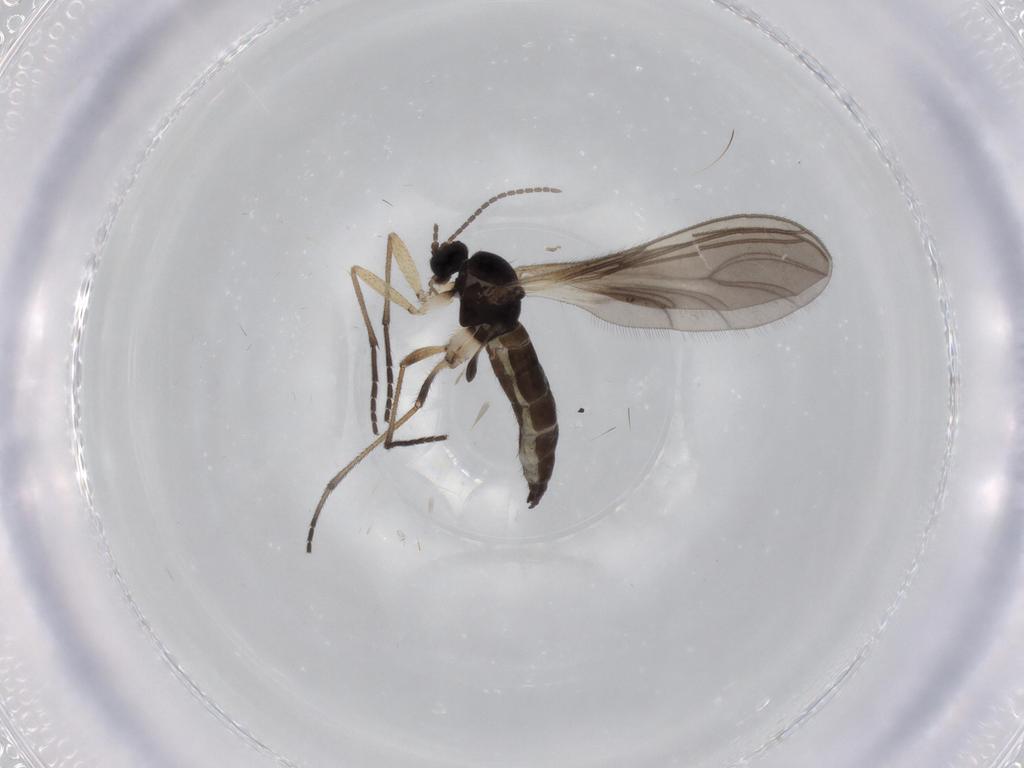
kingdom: Animalia
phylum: Arthropoda
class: Insecta
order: Diptera
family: Sciaridae
